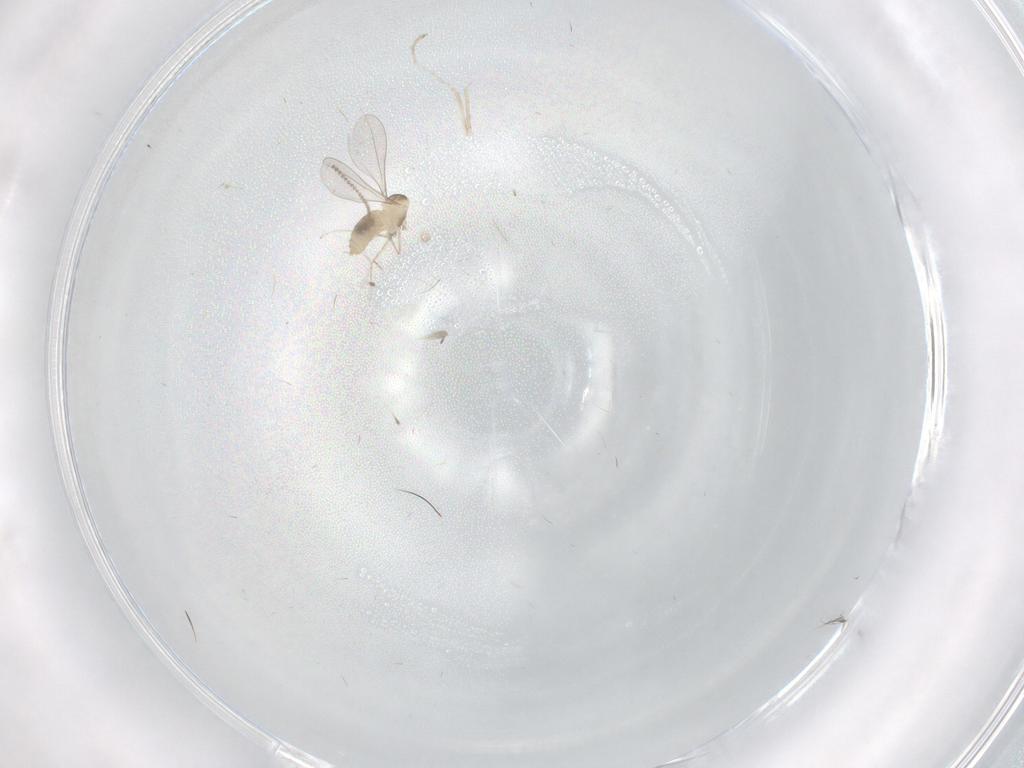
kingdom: Animalia
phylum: Arthropoda
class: Insecta
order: Diptera
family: Cecidomyiidae
